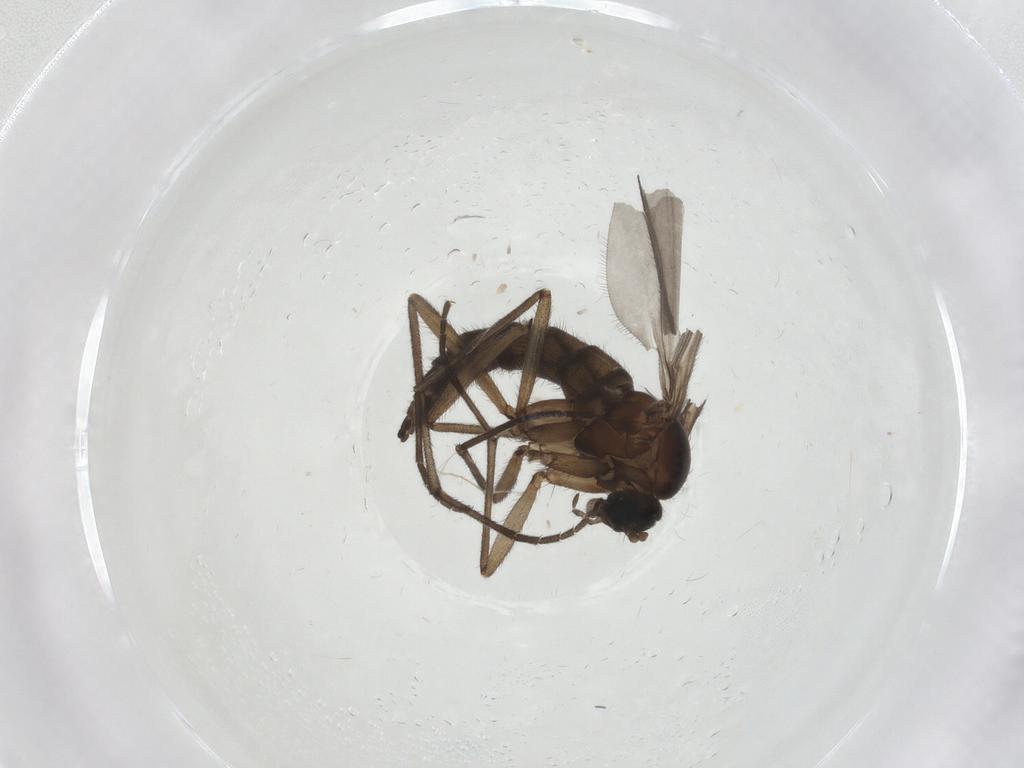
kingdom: Animalia
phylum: Arthropoda
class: Insecta
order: Diptera
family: Sciaridae
